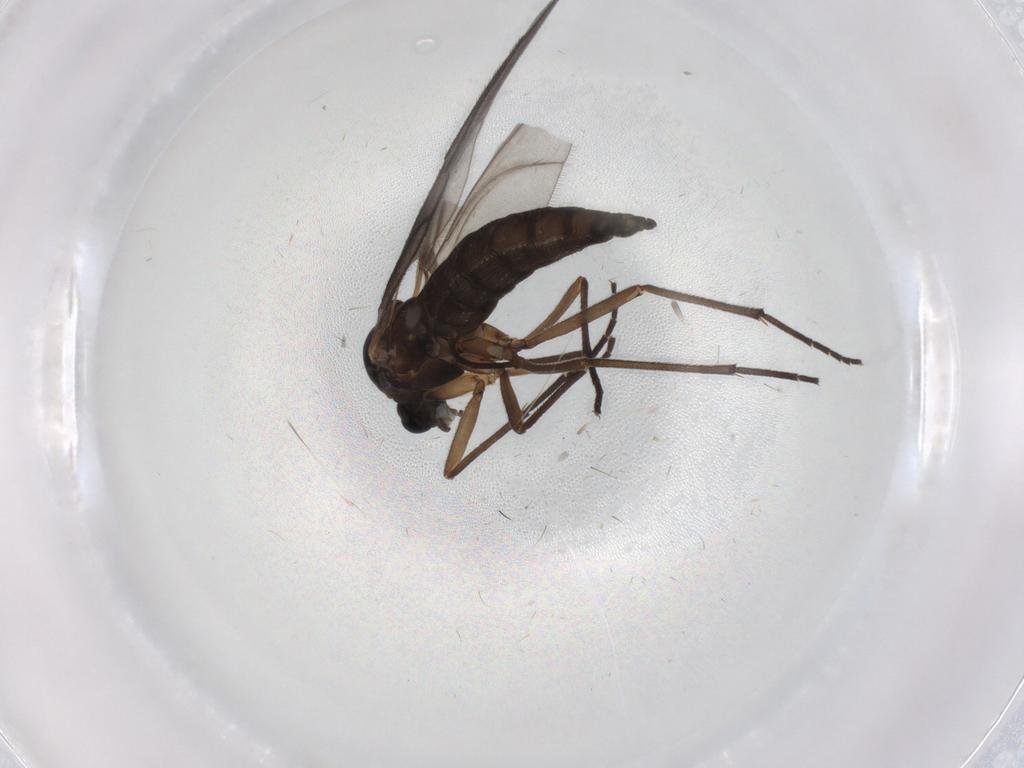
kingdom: Animalia
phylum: Arthropoda
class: Insecta
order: Diptera
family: Sciaridae
